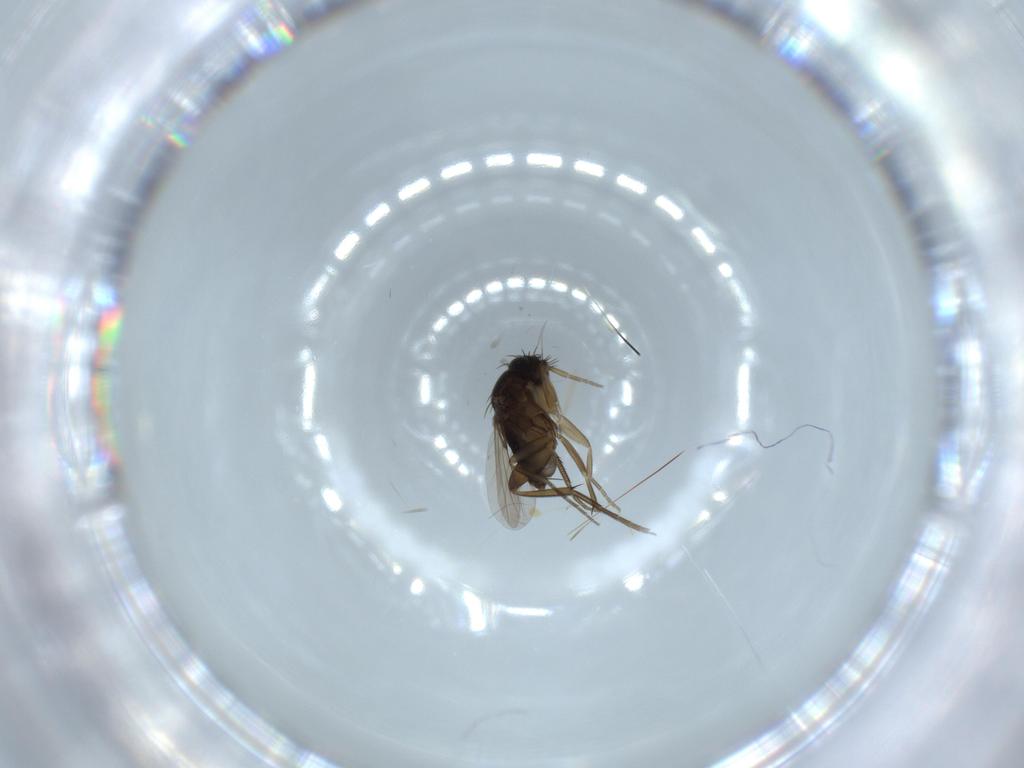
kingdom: Animalia
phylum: Arthropoda
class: Insecta
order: Diptera
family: Phoridae
